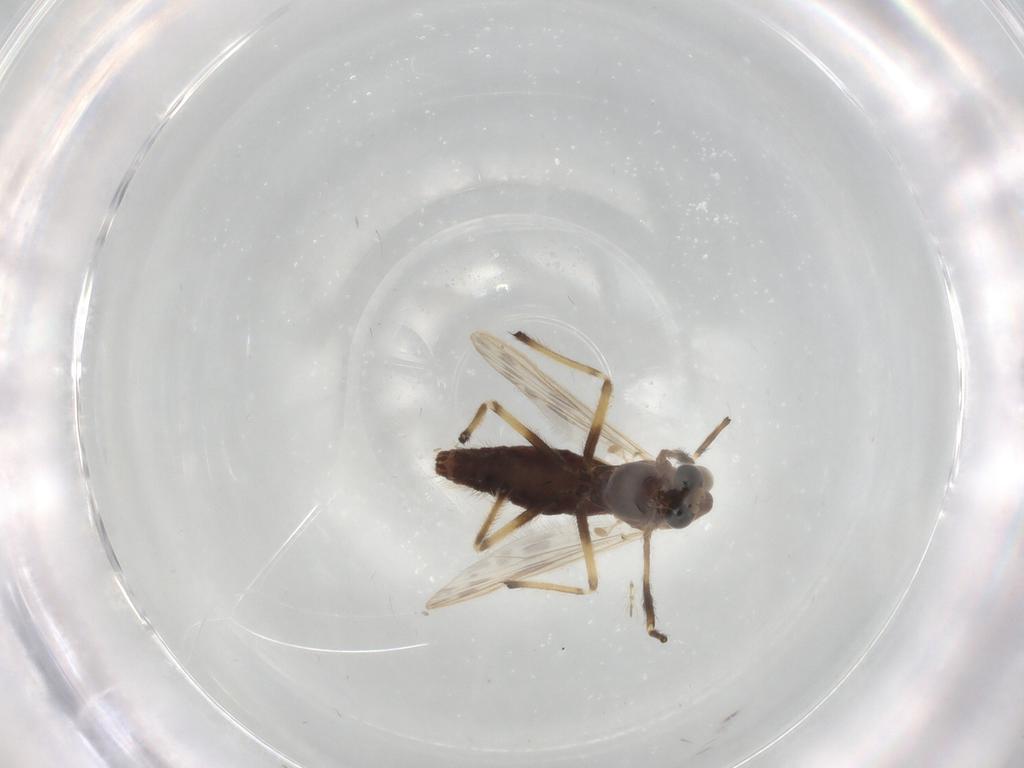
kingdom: Animalia
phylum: Arthropoda
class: Insecta
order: Diptera
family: Chironomidae
